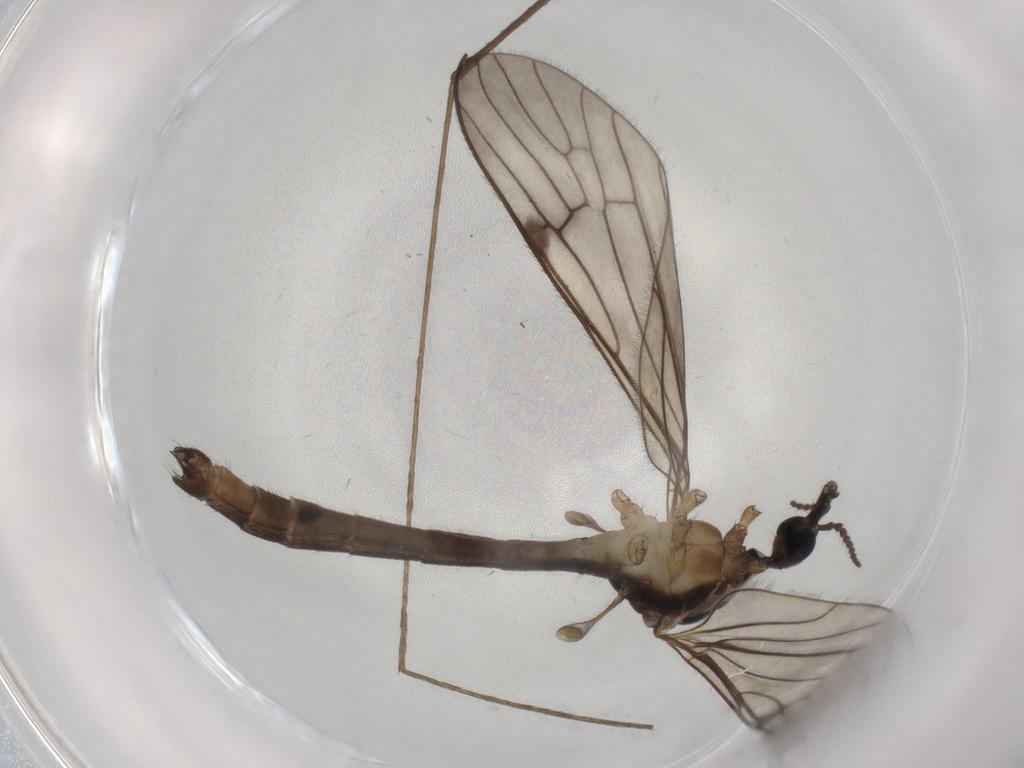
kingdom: Animalia
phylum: Arthropoda
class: Insecta
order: Diptera
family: Limoniidae
